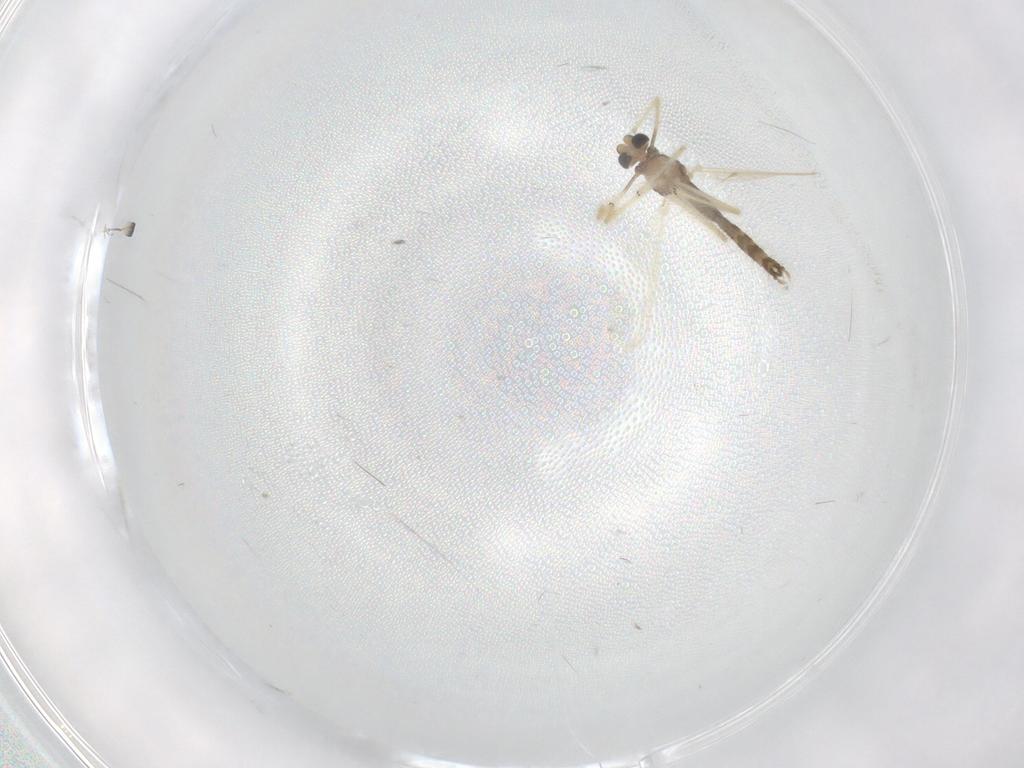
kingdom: Animalia
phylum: Arthropoda
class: Insecta
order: Diptera
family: Chironomidae
